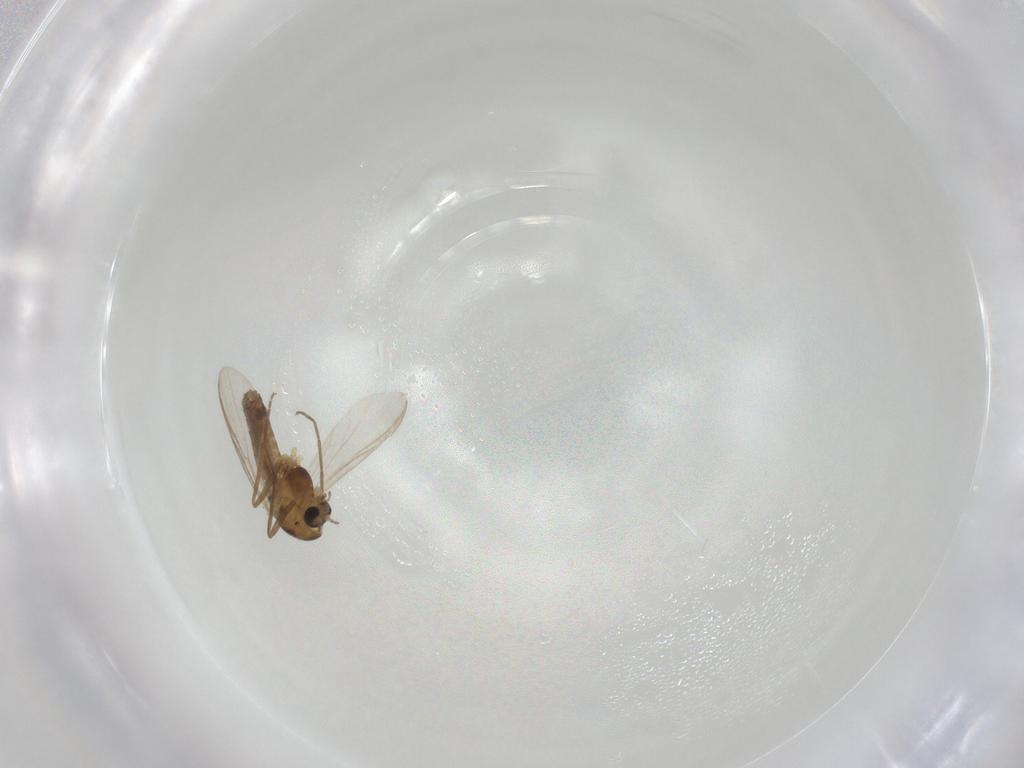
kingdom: Animalia
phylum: Arthropoda
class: Insecta
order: Diptera
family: Chironomidae
